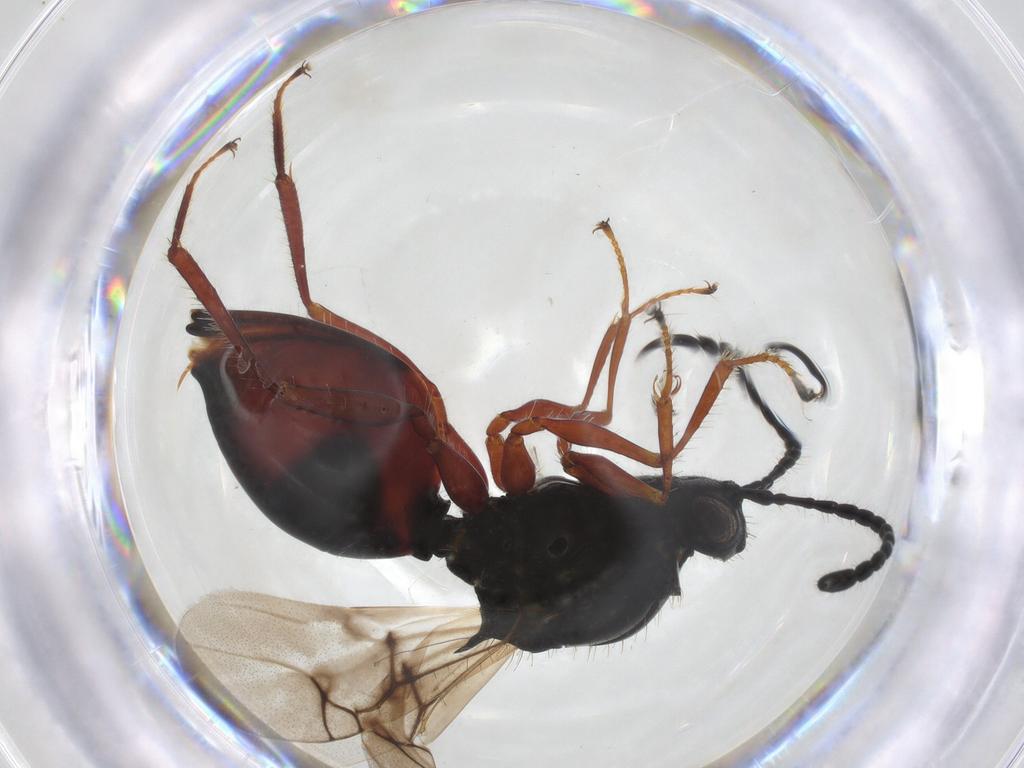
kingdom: Animalia
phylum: Arthropoda
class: Insecta
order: Hymenoptera
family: Figitidae
